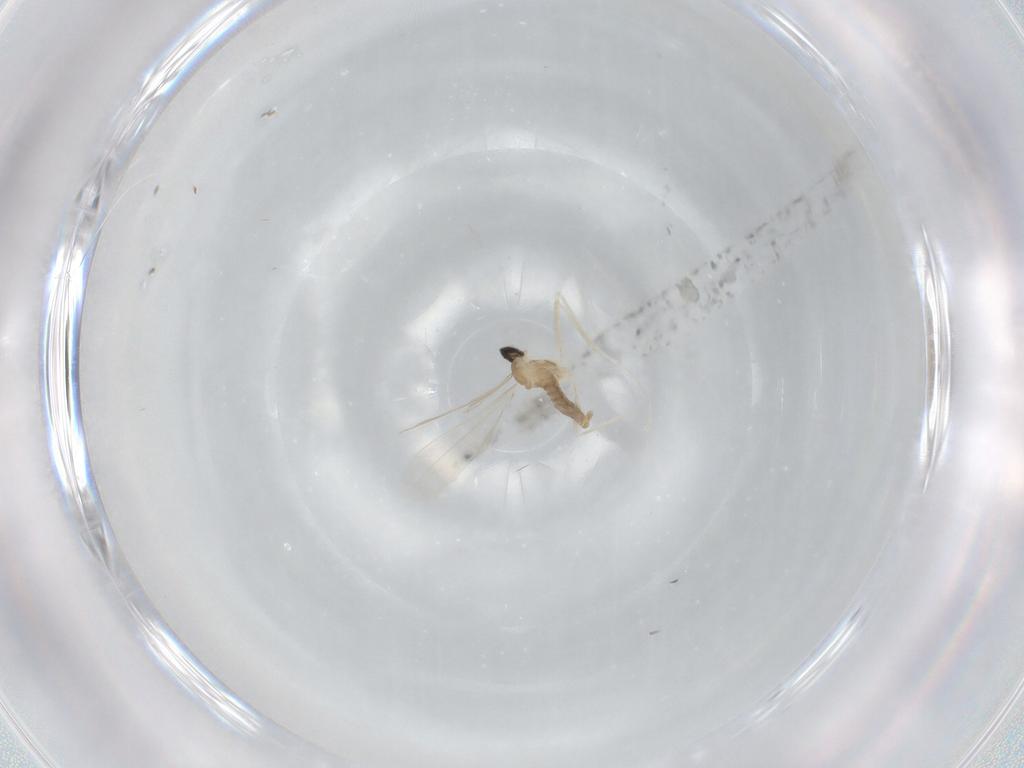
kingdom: Animalia
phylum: Arthropoda
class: Insecta
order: Diptera
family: Cecidomyiidae
